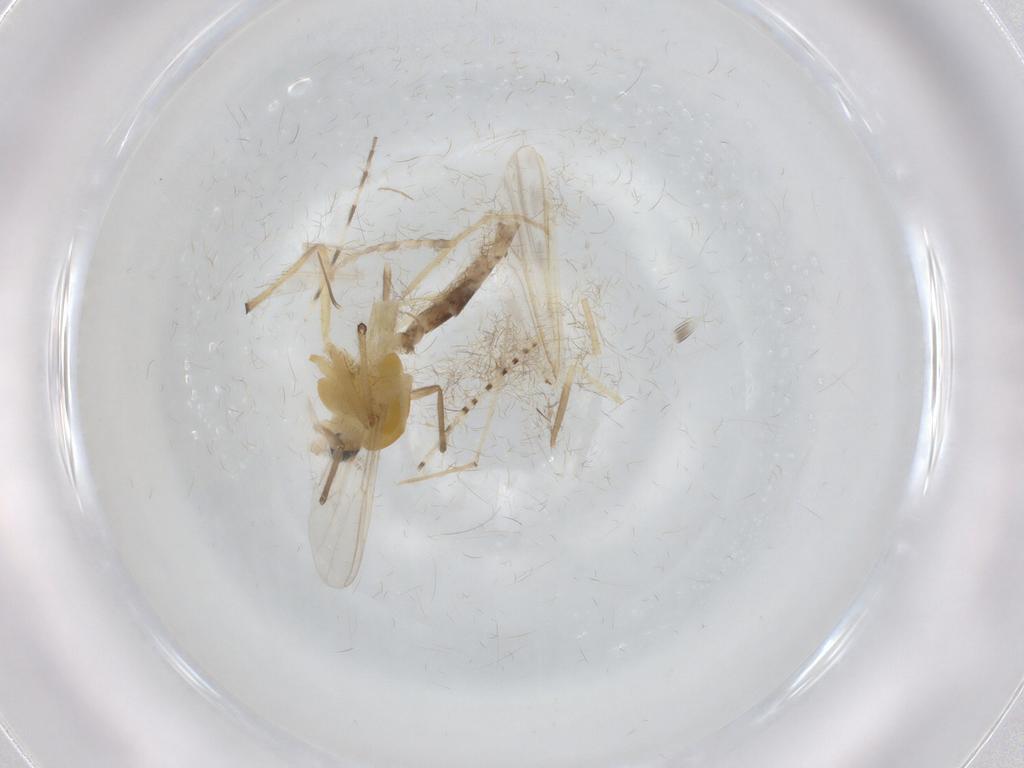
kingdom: Animalia
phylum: Arthropoda
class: Insecta
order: Diptera
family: Chironomidae
